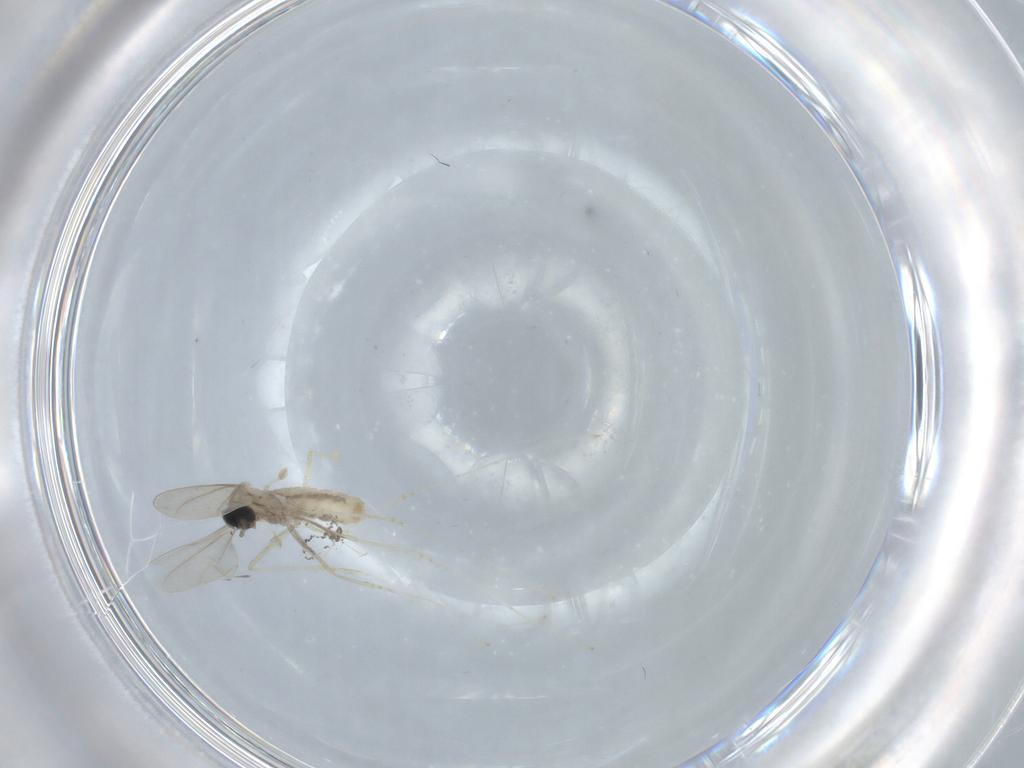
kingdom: Animalia
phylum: Arthropoda
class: Insecta
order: Diptera
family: Cecidomyiidae
